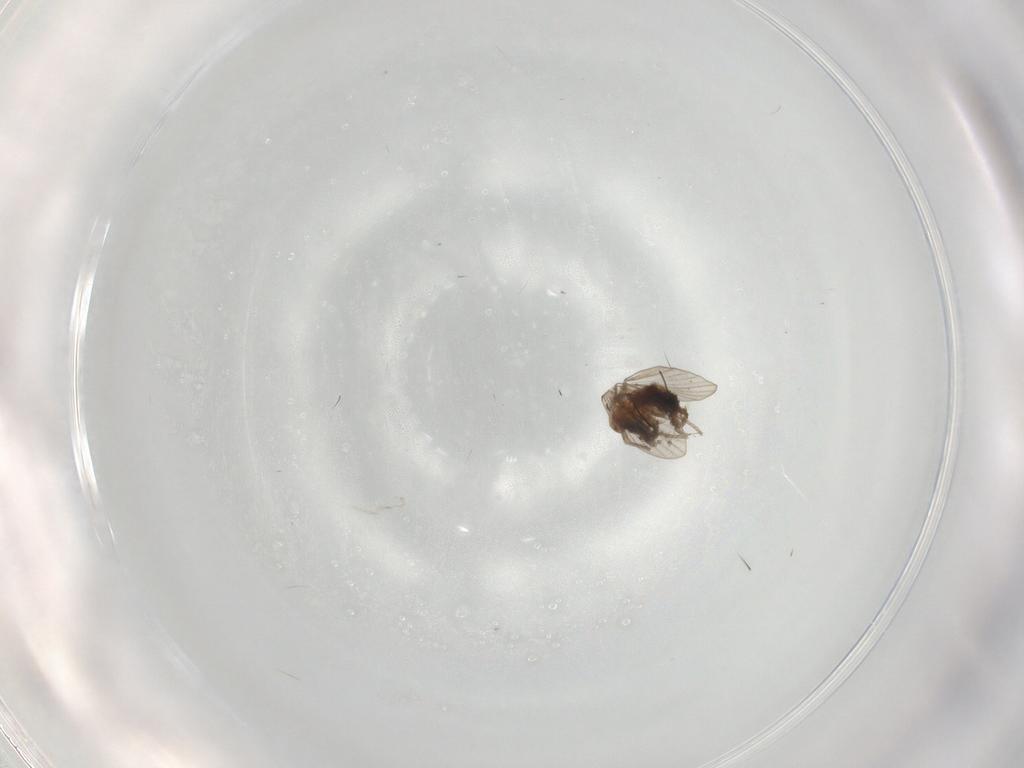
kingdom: Animalia
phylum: Arthropoda
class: Insecta
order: Diptera
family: Psychodidae
